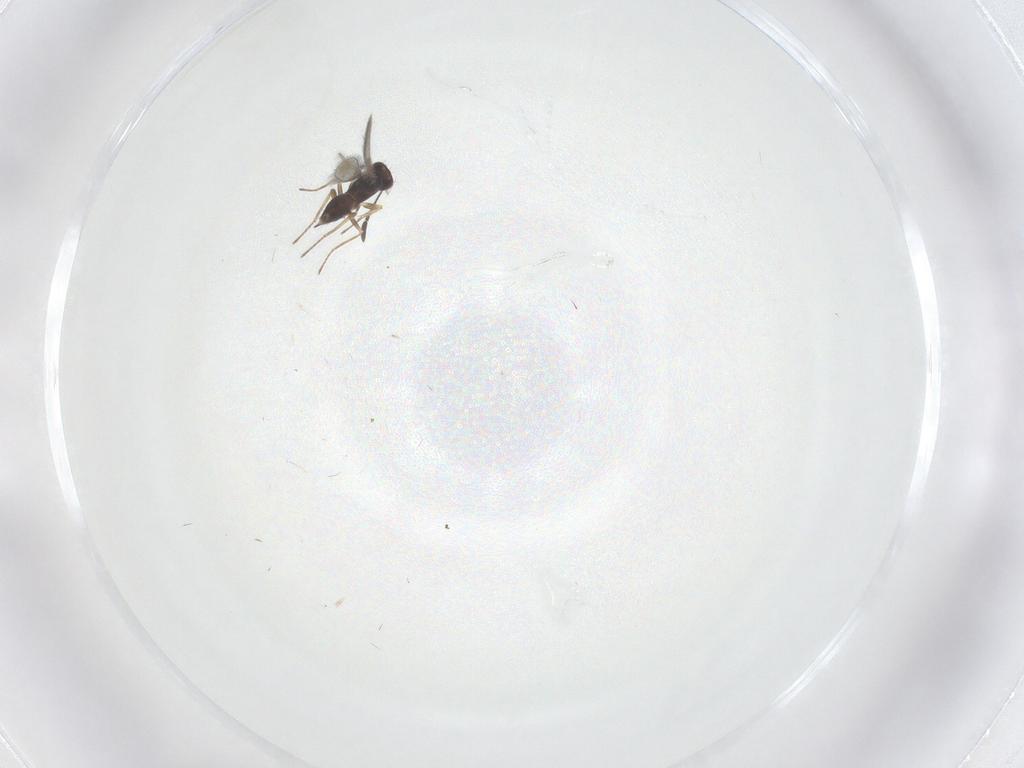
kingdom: Animalia
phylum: Arthropoda
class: Insecta
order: Hymenoptera
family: Mymaridae
